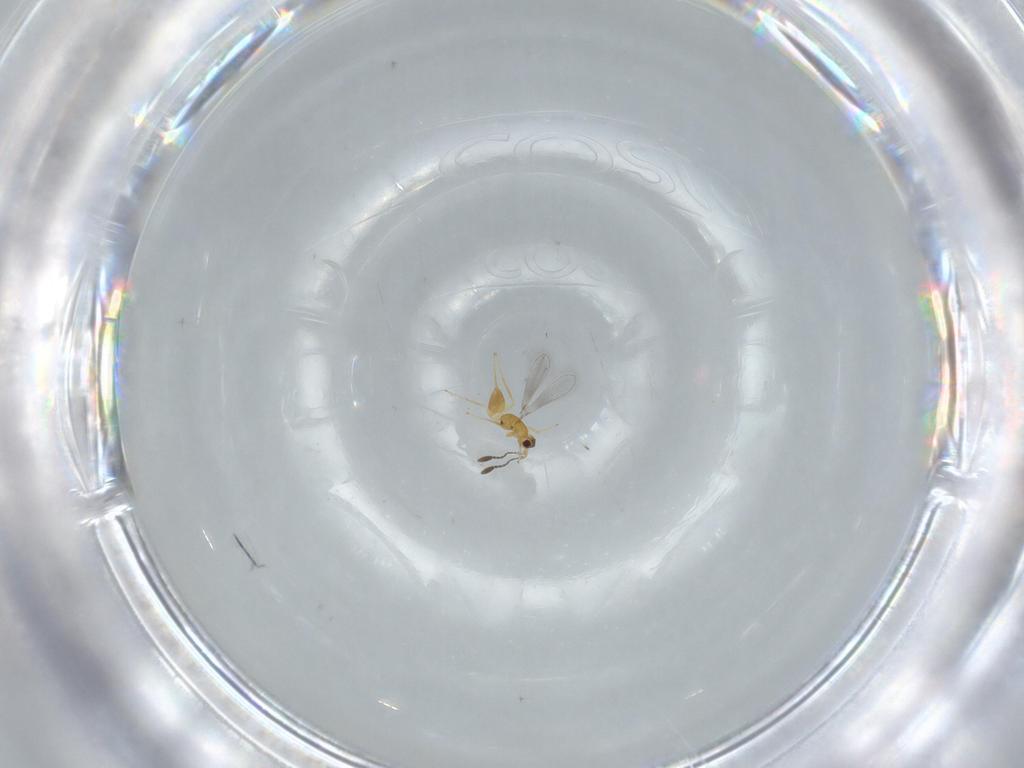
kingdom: Animalia
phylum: Arthropoda
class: Insecta
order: Hymenoptera
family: Mymaridae
